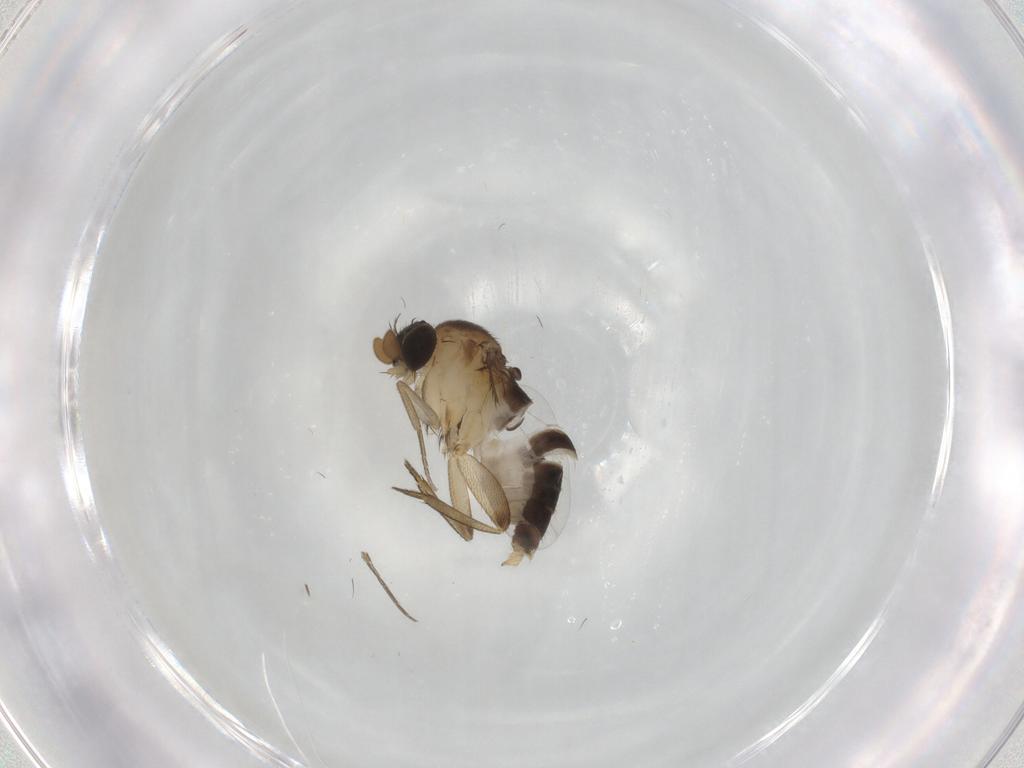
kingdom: Animalia
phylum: Arthropoda
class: Insecta
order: Diptera
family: Phoridae
